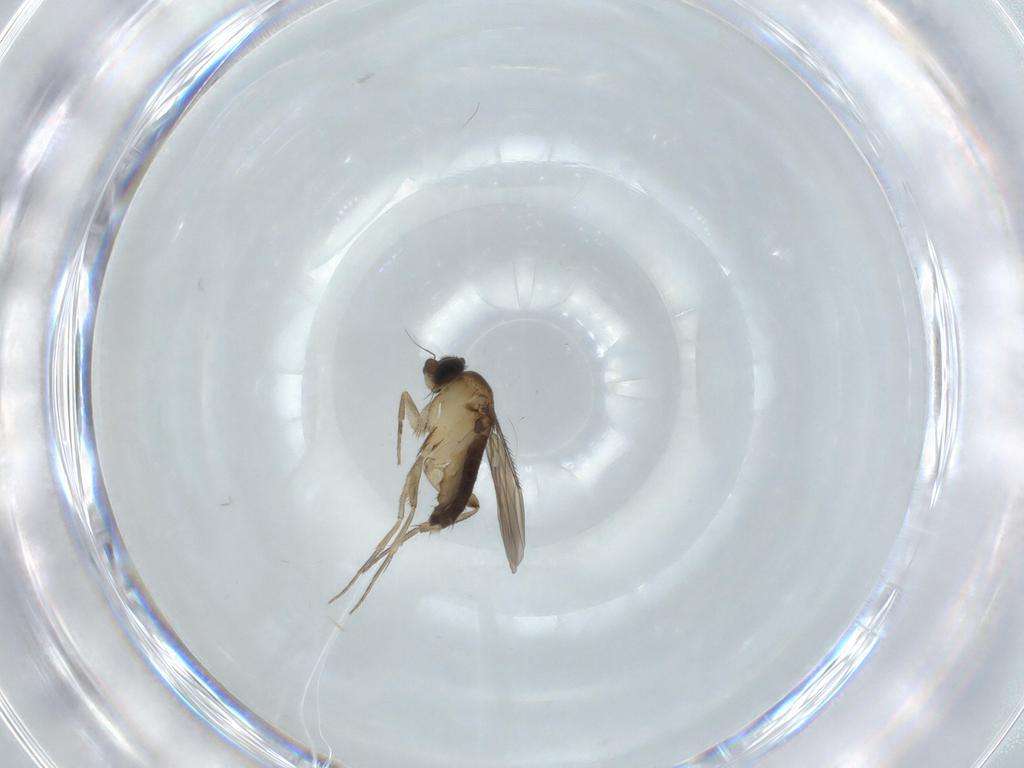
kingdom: Animalia
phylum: Arthropoda
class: Insecta
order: Diptera
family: Phoridae
